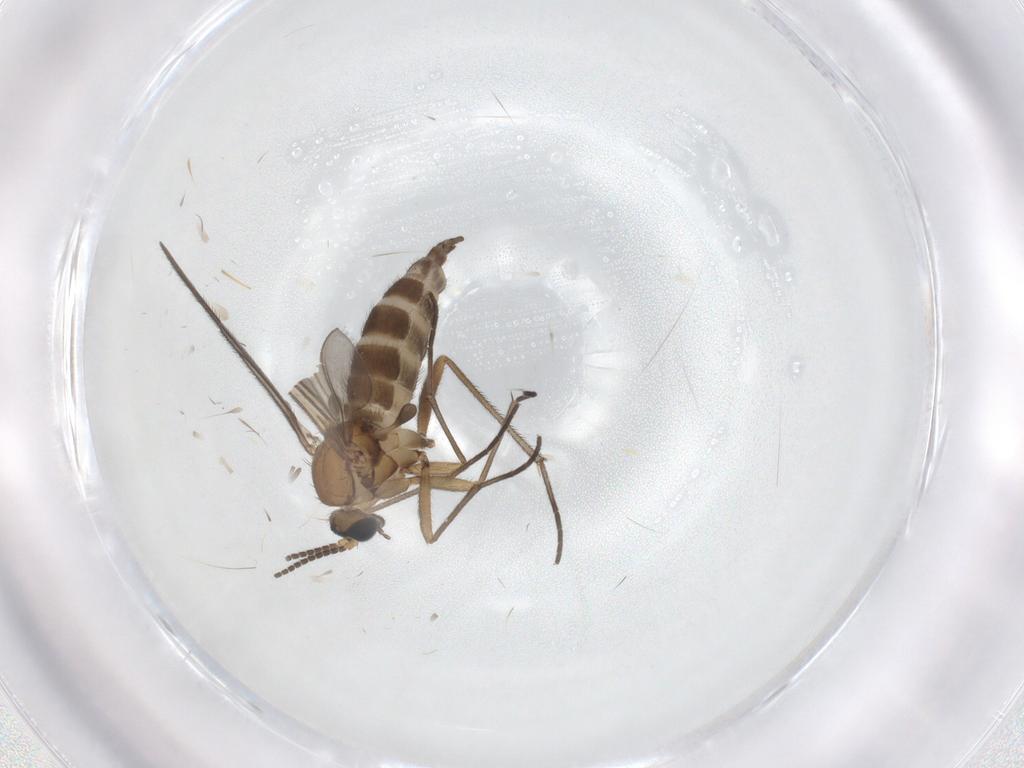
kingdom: Animalia
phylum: Arthropoda
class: Insecta
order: Diptera
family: Sciaridae
